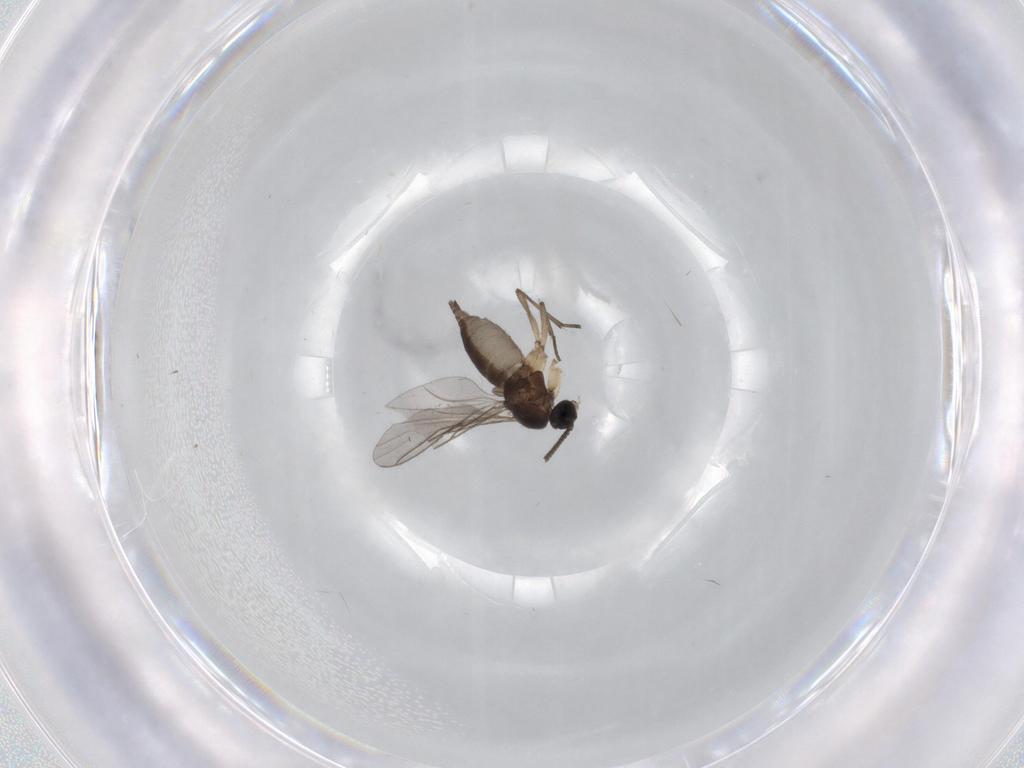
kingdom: Animalia
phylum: Arthropoda
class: Insecta
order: Diptera
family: Sciaridae
